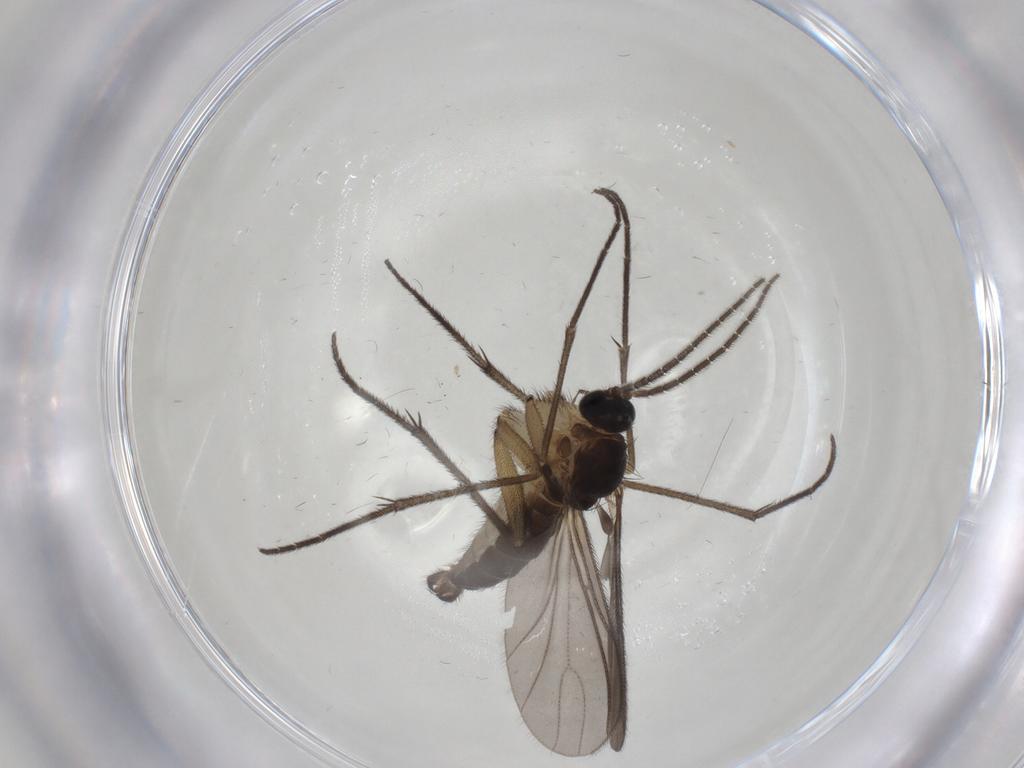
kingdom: Animalia
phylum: Arthropoda
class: Insecta
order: Diptera
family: Sciaridae
